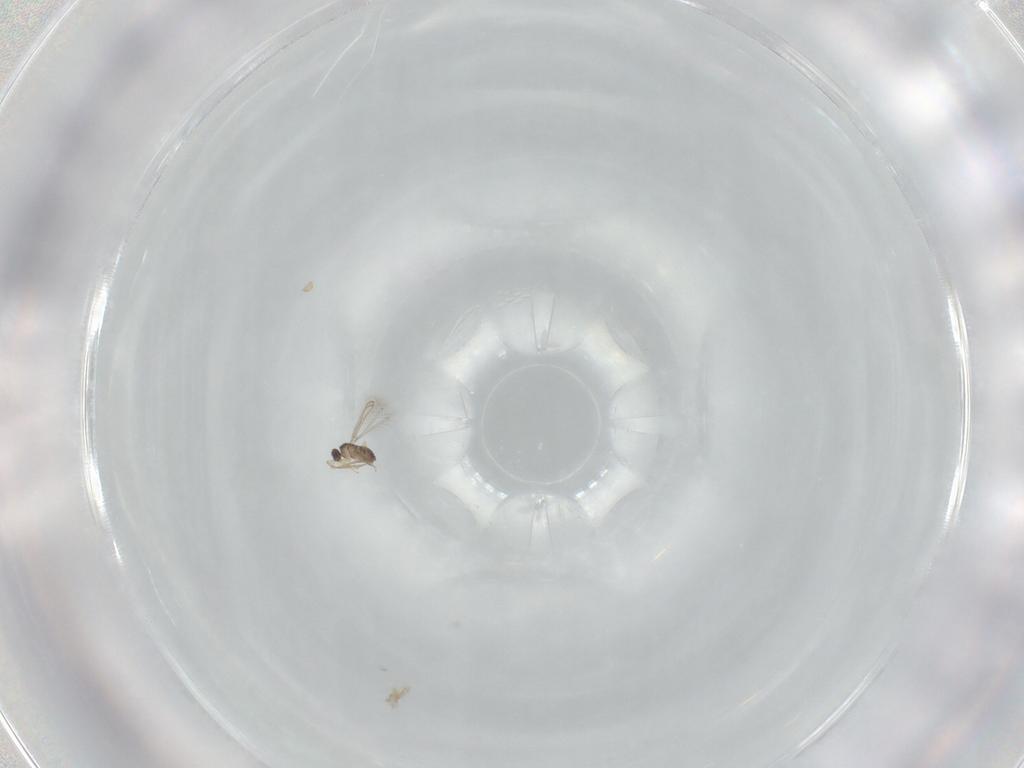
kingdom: Animalia
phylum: Arthropoda
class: Insecta
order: Hymenoptera
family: Mymaridae
